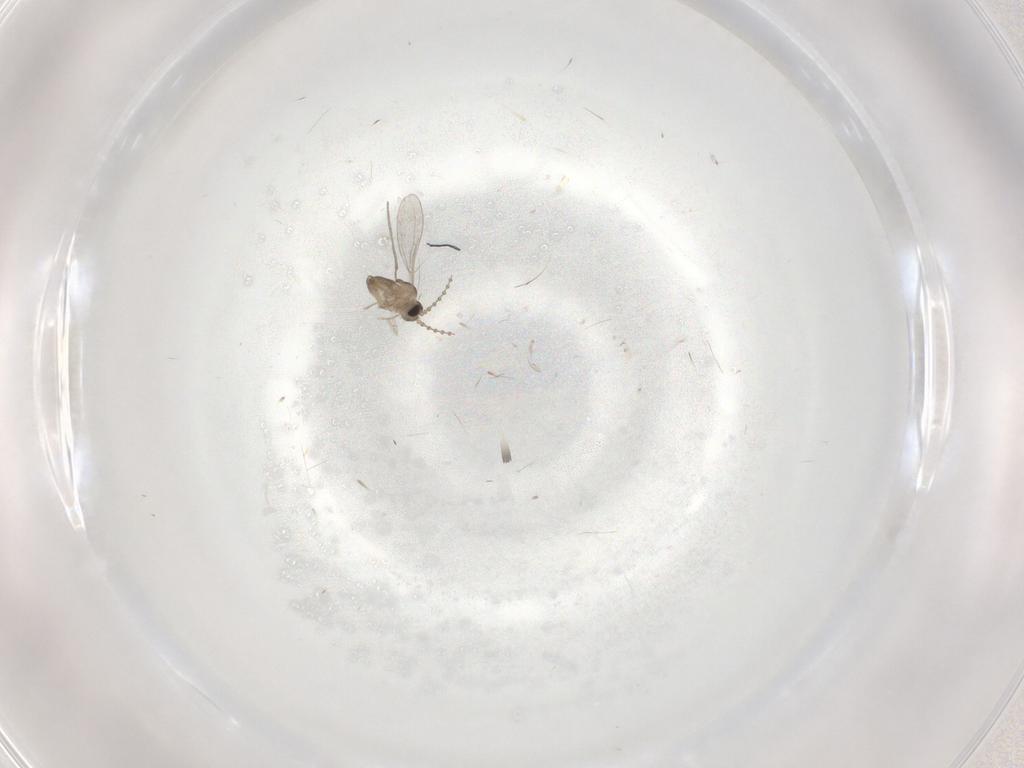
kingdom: Animalia
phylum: Arthropoda
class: Insecta
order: Diptera
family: Cecidomyiidae
